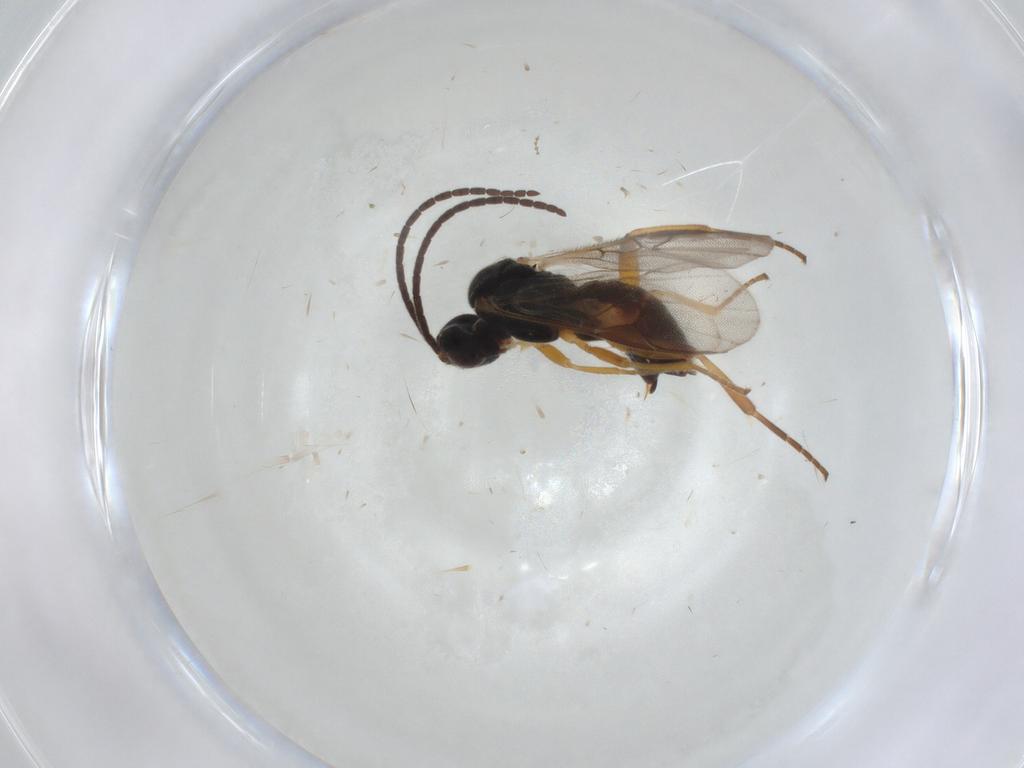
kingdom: Animalia
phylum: Arthropoda
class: Insecta
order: Hymenoptera
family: Braconidae
